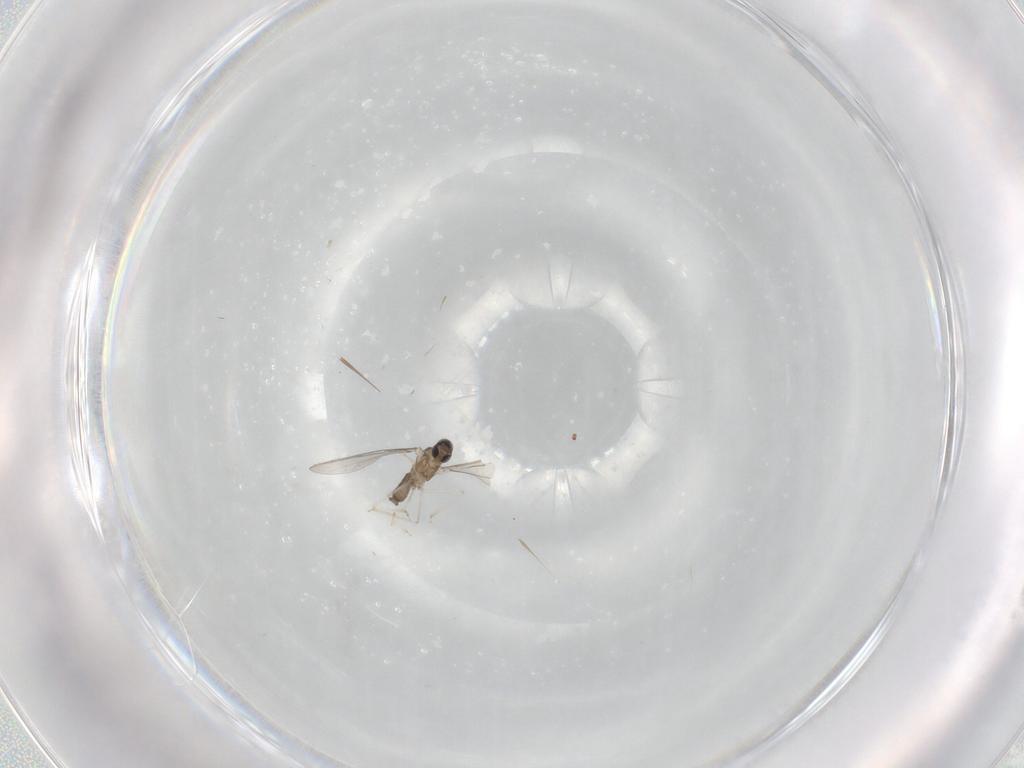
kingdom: Animalia
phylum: Arthropoda
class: Insecta
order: Diptera
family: Cecidomyiidae
